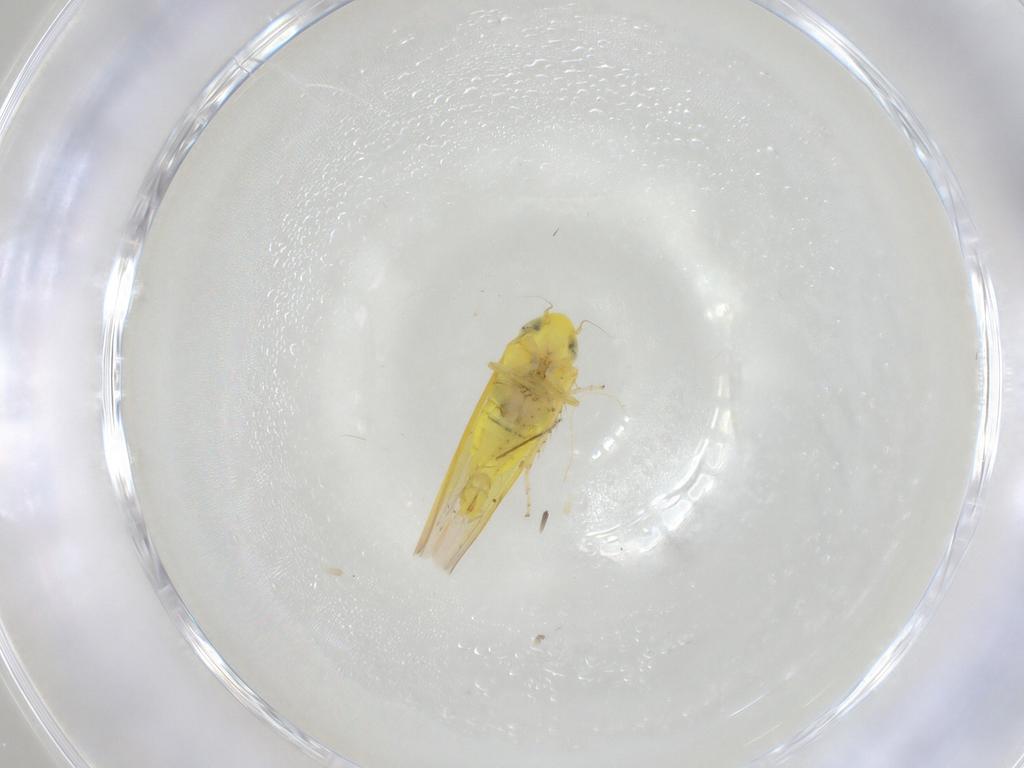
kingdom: Animalia
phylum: Arthropoda
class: Insecta
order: Hemiptera
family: Cicadellidae
